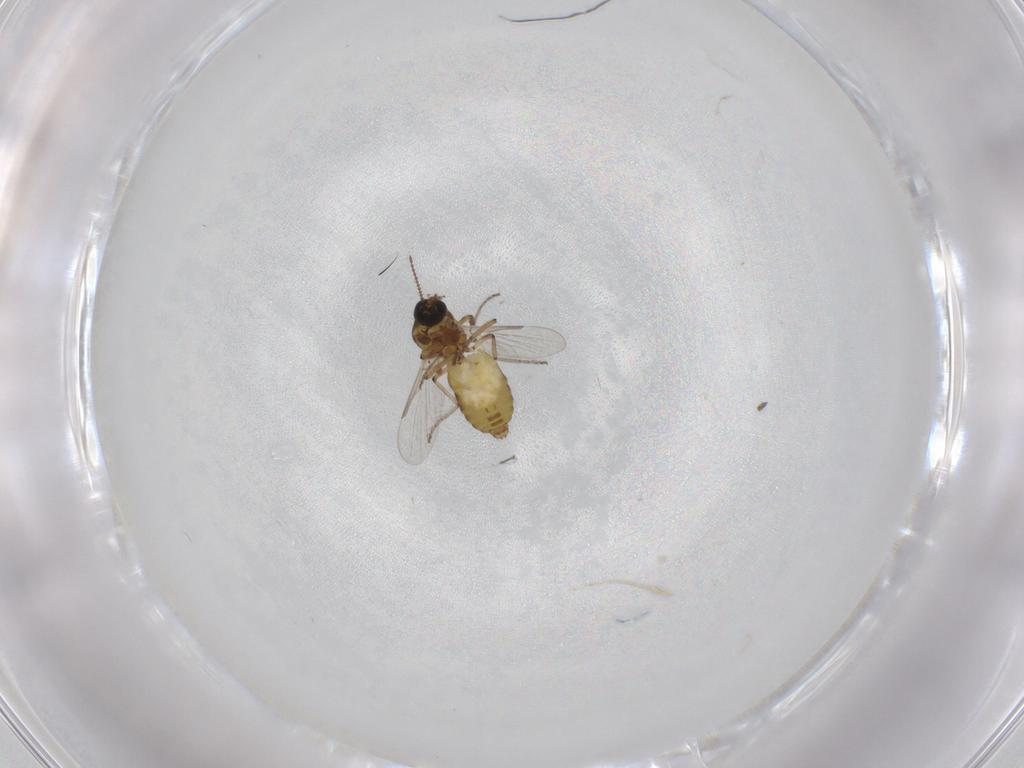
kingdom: Animalia
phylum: Arthropoda
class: Insecta
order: Diptera
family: Ceratopogonidae
